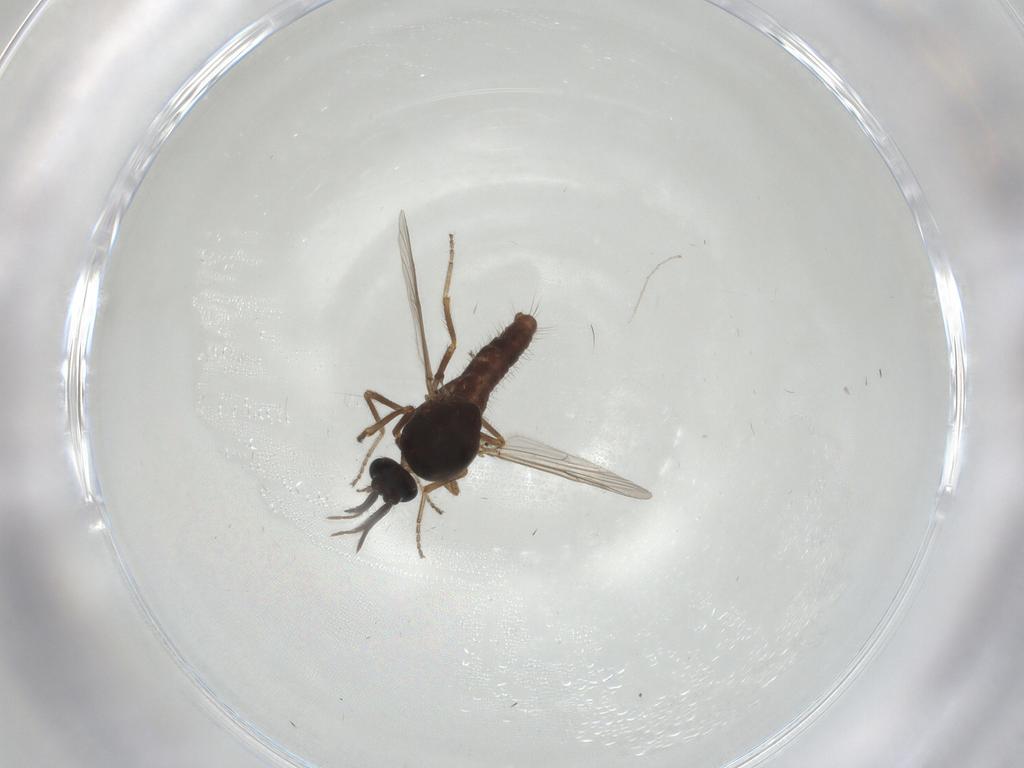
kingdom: Animalia
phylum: Arthropoda
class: Insecta
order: Diptera
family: Ceratopogonidae
